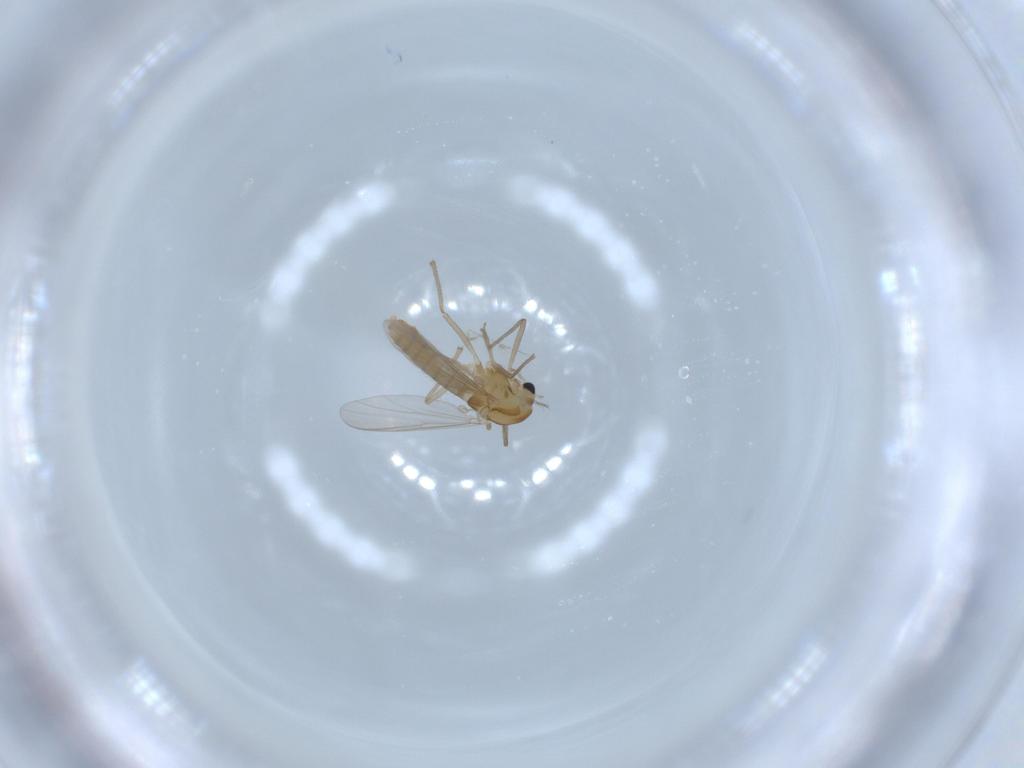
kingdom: Animalia
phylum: Arthropoda
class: Insecta
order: Diptera
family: Chironomidae
